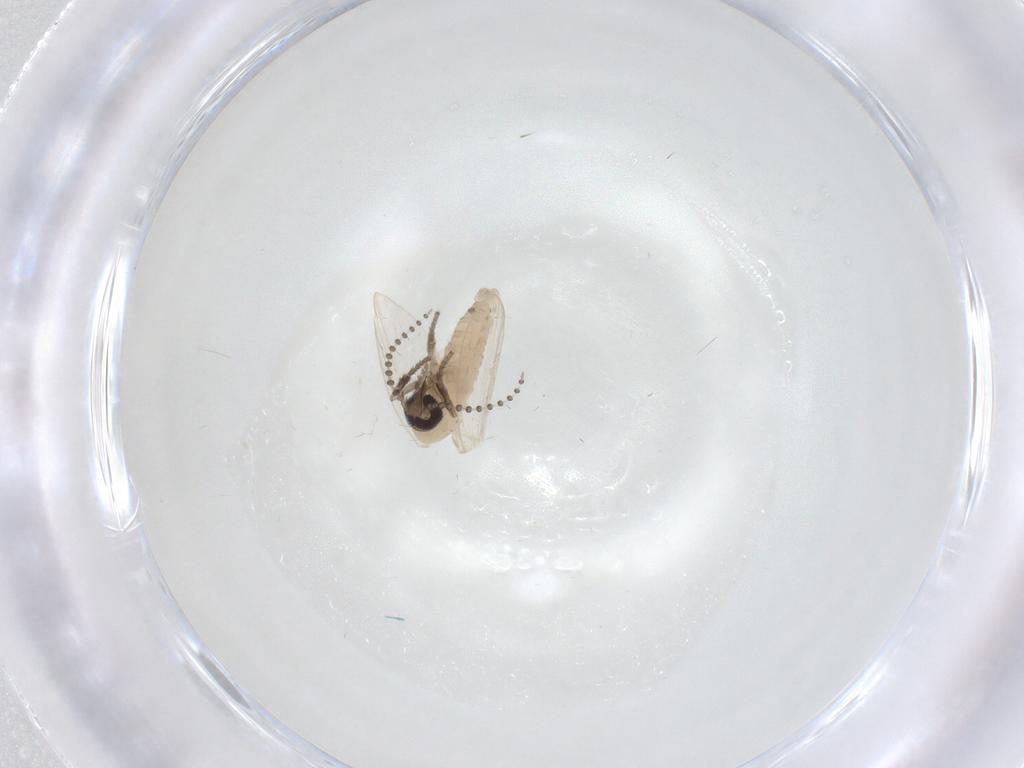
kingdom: Animalia
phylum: Arthropoda
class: Insecta
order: Diptera
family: Psychodidae
